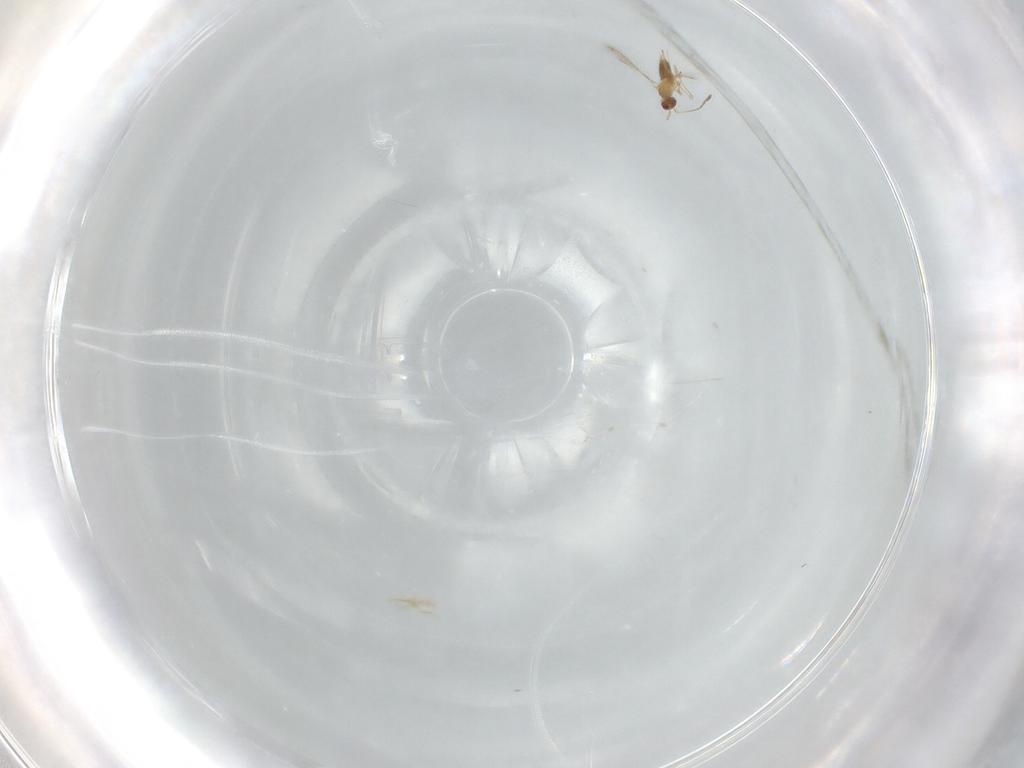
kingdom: Animalia
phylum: Arthropoda
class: Insecta
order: Hymenoptera
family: Mymaridae
